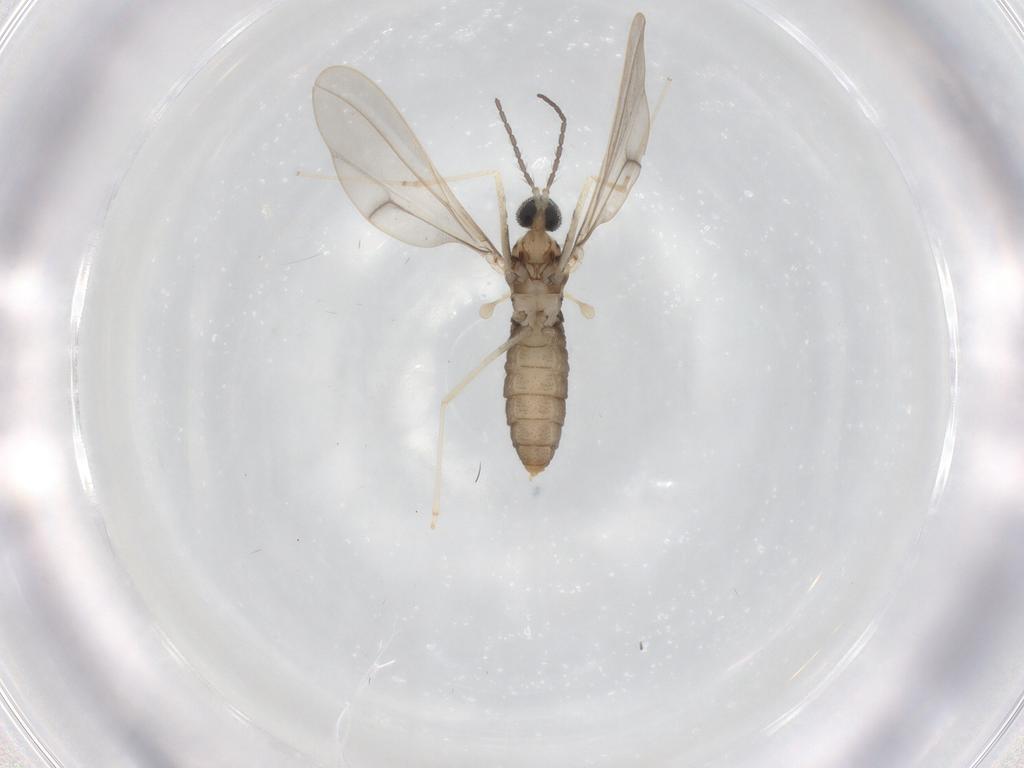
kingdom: Animalia
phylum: Arthropoda
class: Insecta
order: Diptera
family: Cecidomyiidae
